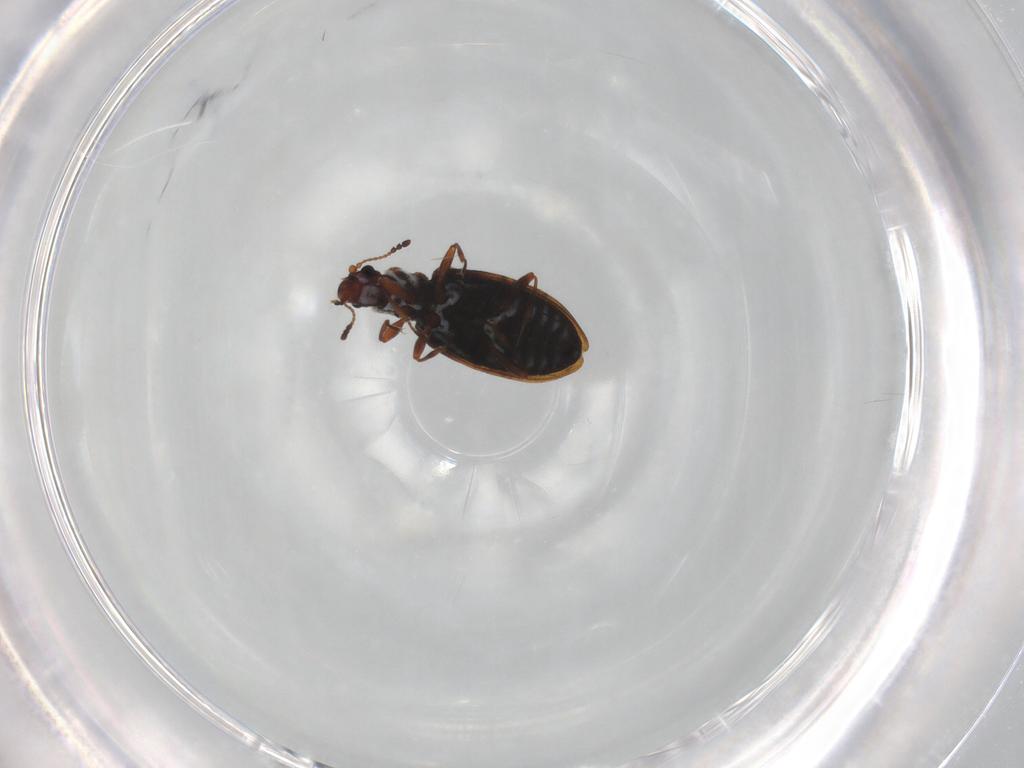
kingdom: Animalia
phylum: Arthropoda
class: Insecta
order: Coleoptera
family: Latridiidae
